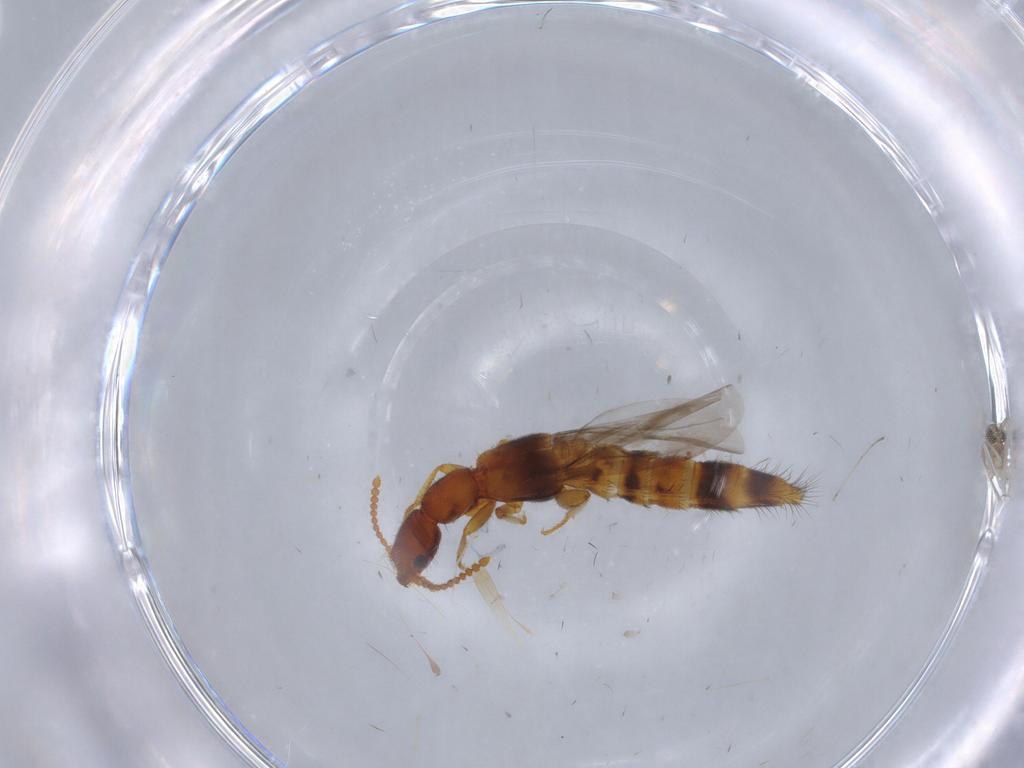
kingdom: Animalia
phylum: Arthropoda
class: Insecta
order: Coleoptera
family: Staphylinidae
